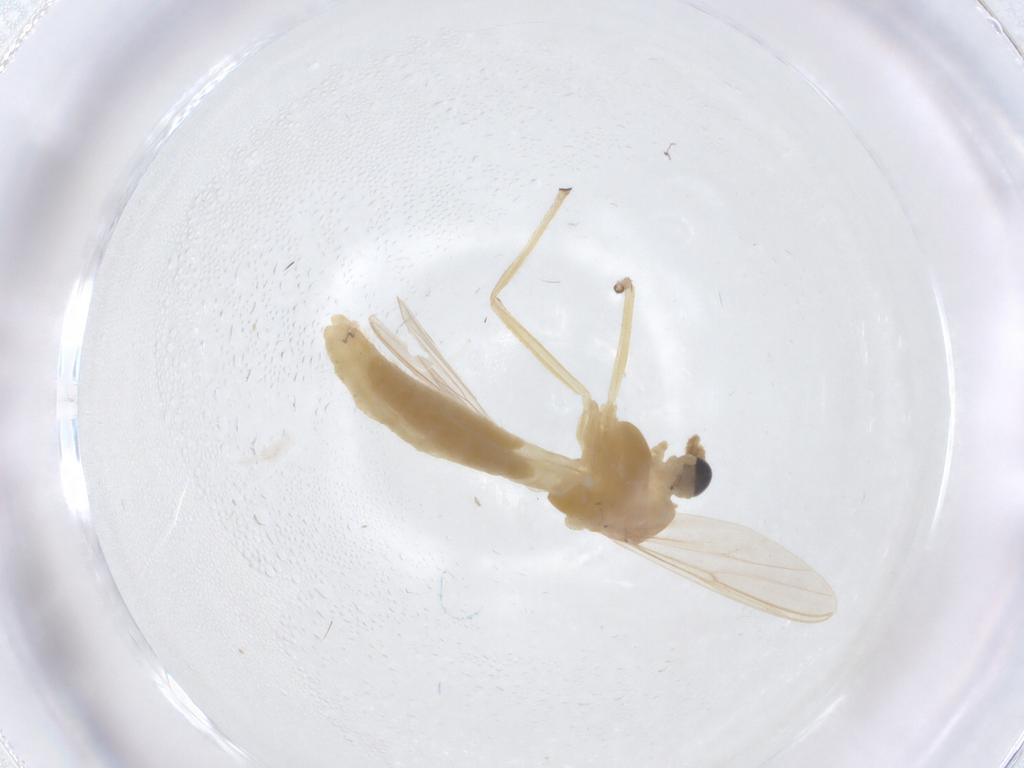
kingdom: Animalia
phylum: Arthropoda
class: Insecta
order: Diptera
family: Chironomidae
